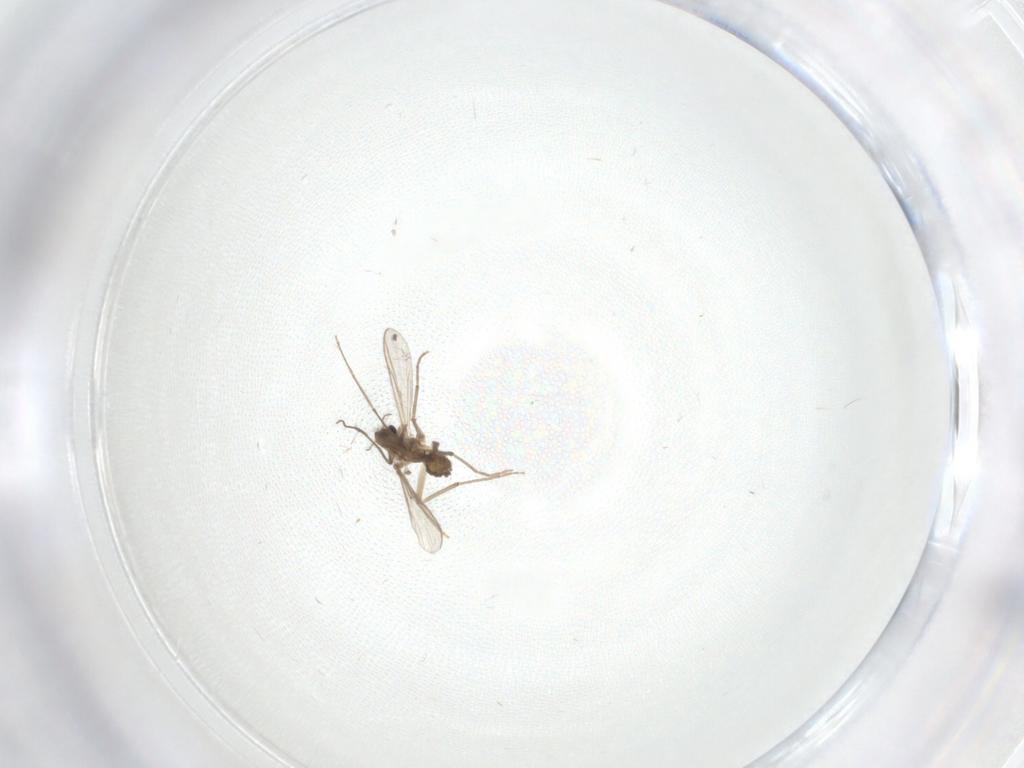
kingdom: Animalia
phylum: Arthropoda
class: Insecta
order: Diptera
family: Chironomidae
